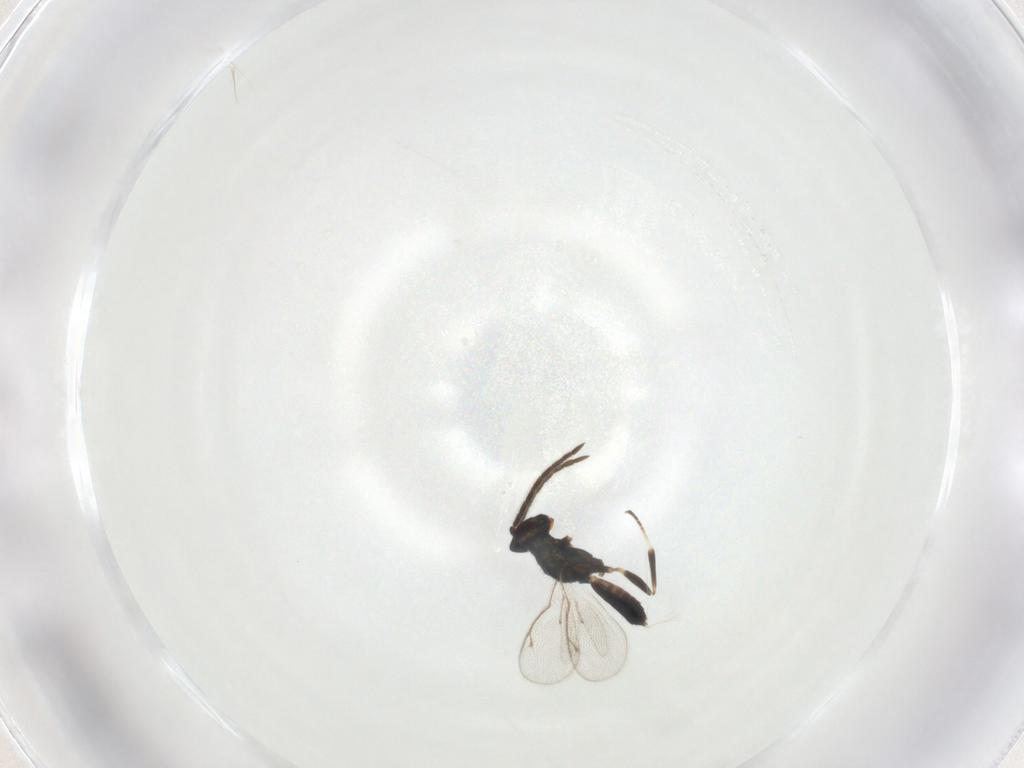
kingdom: Animalia
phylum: Arthropoda
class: Insecta
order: Hymenoptera
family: Eupelmidae
